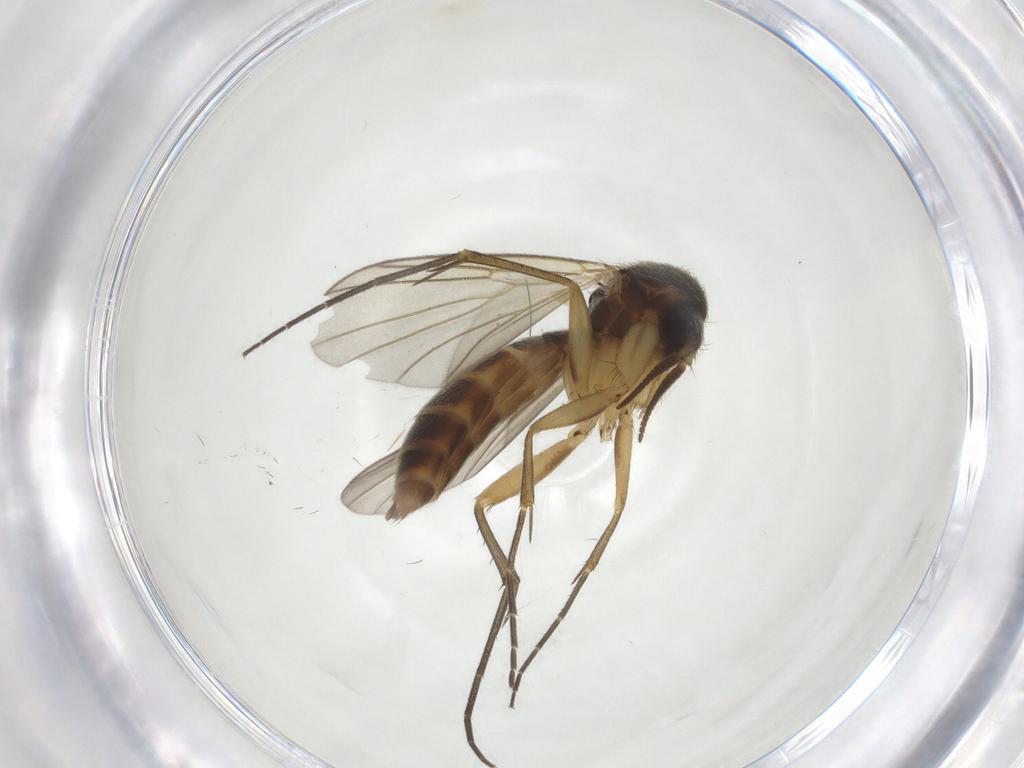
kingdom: Animalia
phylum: Arthropoda
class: Insecta
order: Diptera
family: Mycetophilidae
